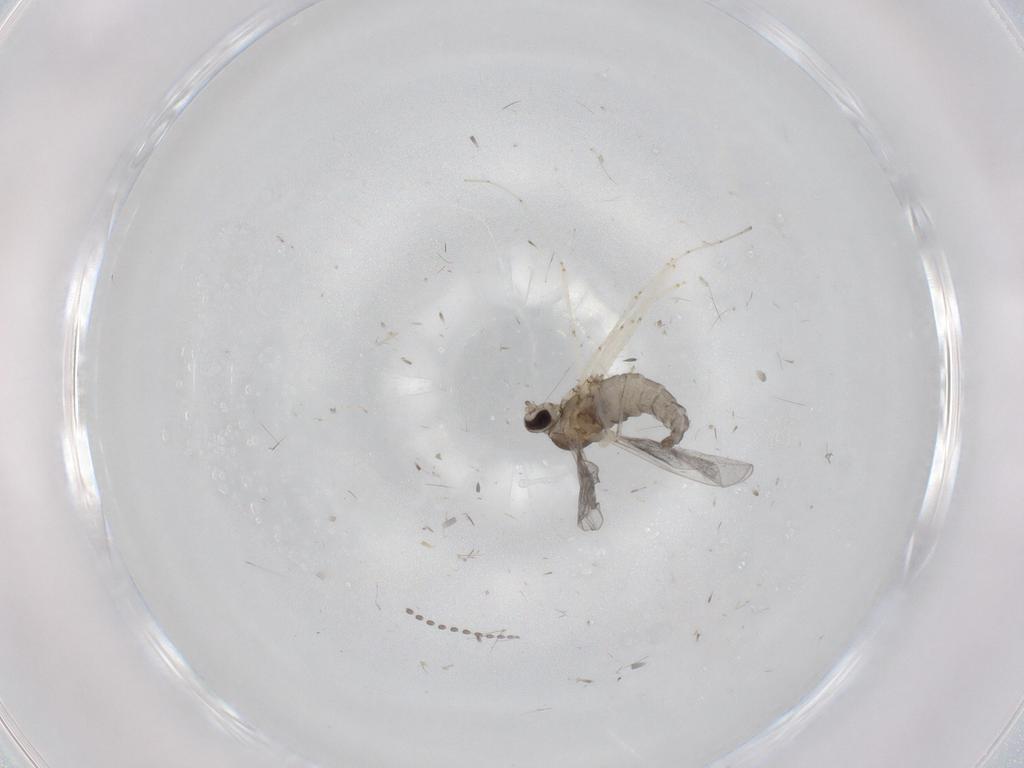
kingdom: Animalia
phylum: Arthropoda
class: Insecta
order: Diptera
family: Cecidomyiidae
